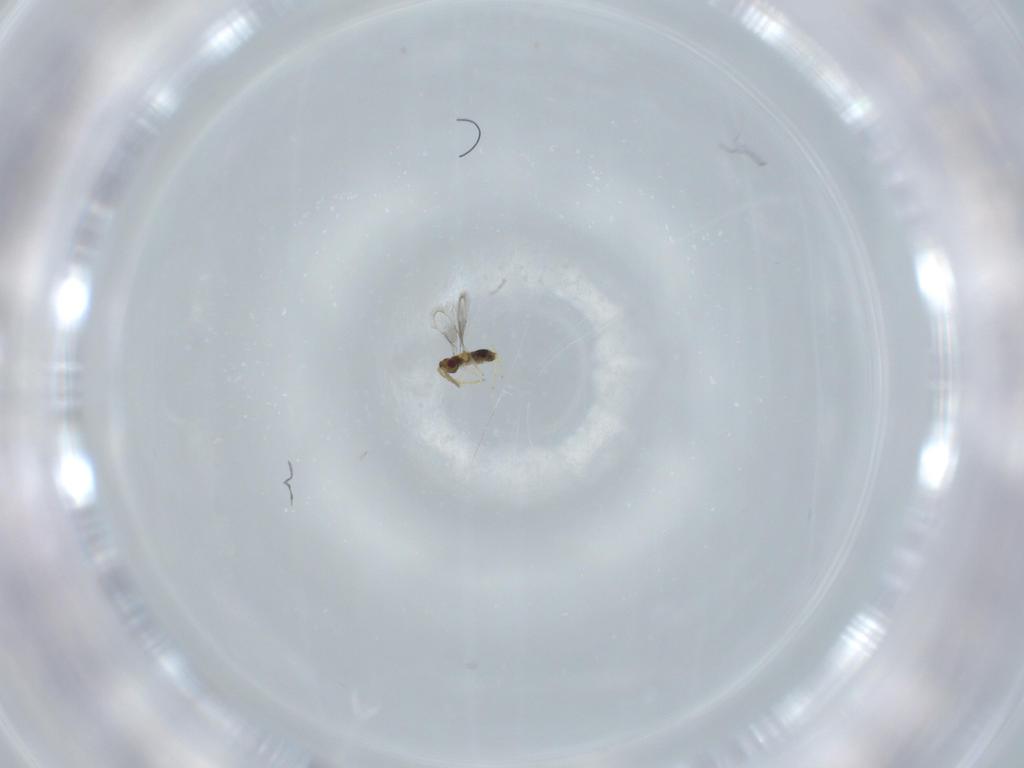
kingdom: Animalia
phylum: Arthropoda
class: Insecta
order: Hymenoptera
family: Aphelinidae
